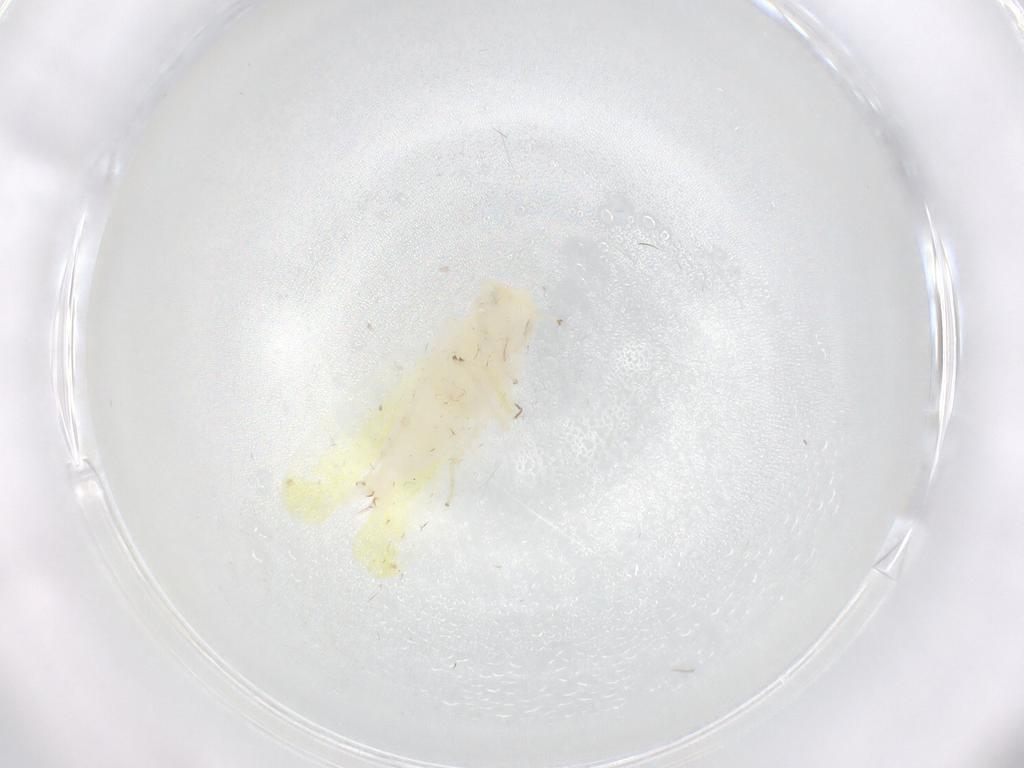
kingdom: Animalia
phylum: Arthropoda
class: Insecta
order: Hemiptera
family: Cicadellidae
